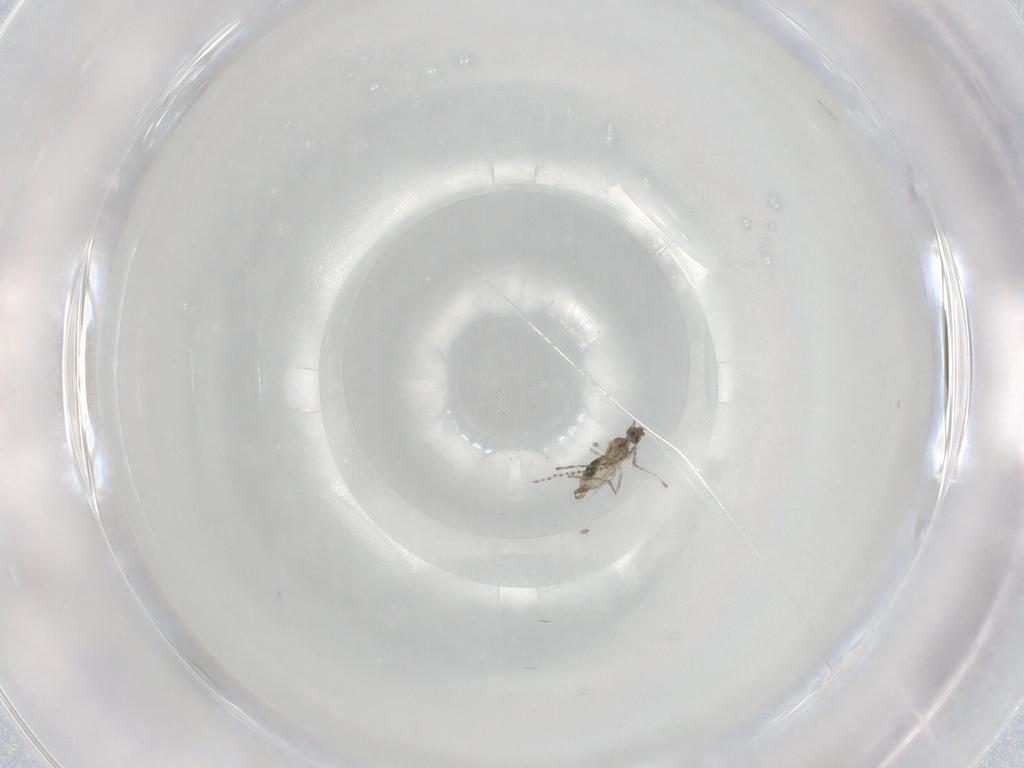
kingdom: Animalia
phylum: Arthropoda
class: Insecta
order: Diptera
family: Cecidomyiidae
